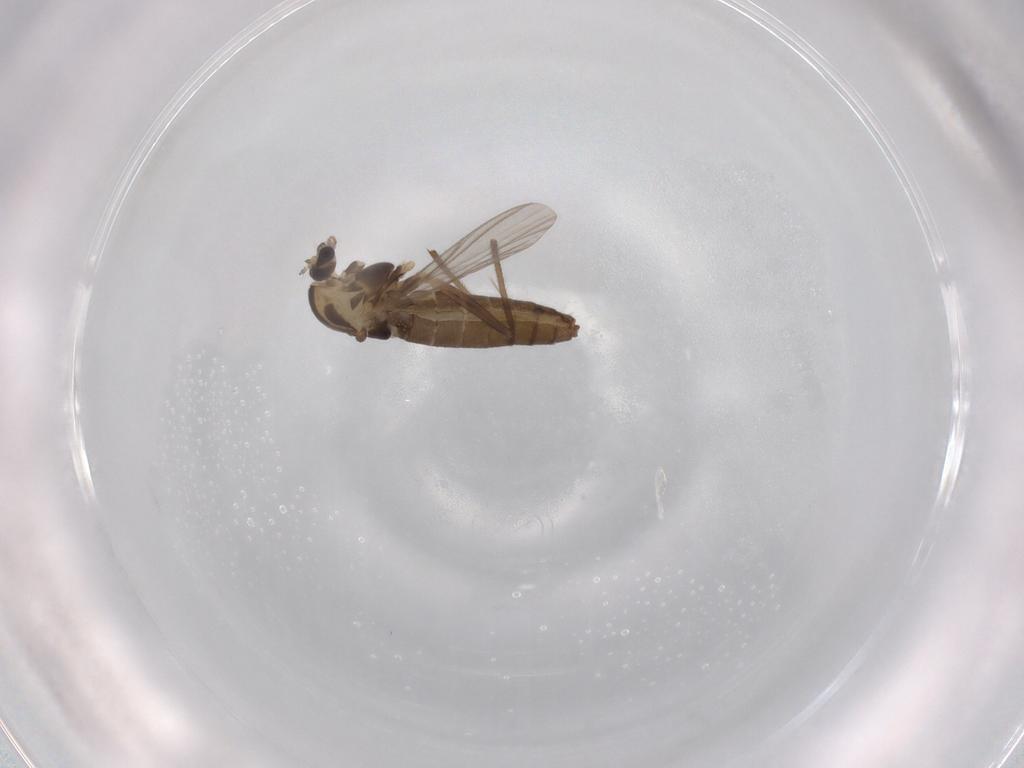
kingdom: Animalia
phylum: Arthropoda
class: Insecta
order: Diptera
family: Chironomidae
